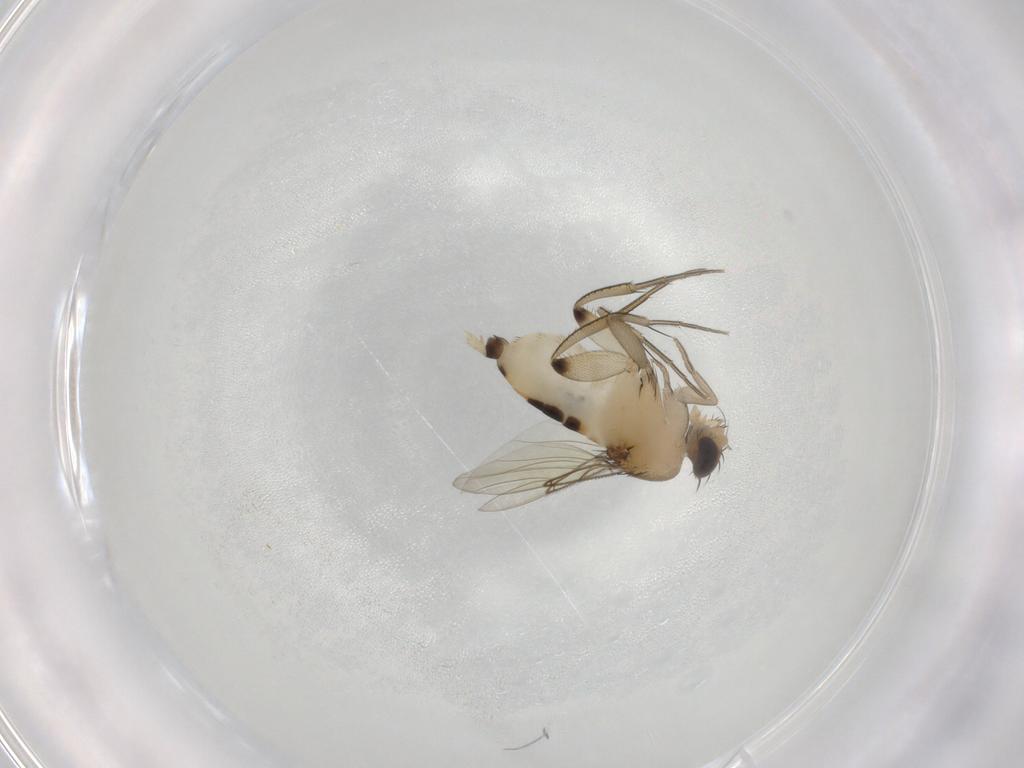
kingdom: Animalia
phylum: Arthropoda
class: Insecta
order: Diptera
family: Phoridae
